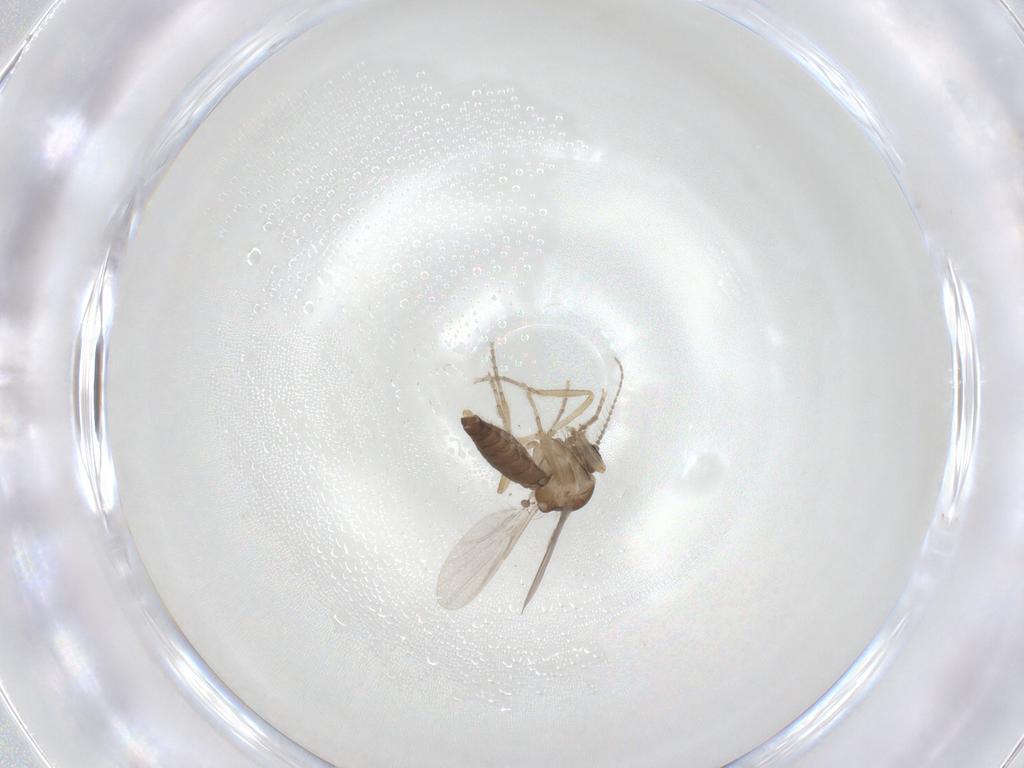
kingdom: Animalia
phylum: Arthropoda
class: Insecta
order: Diptera
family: Ceratopogonidae
